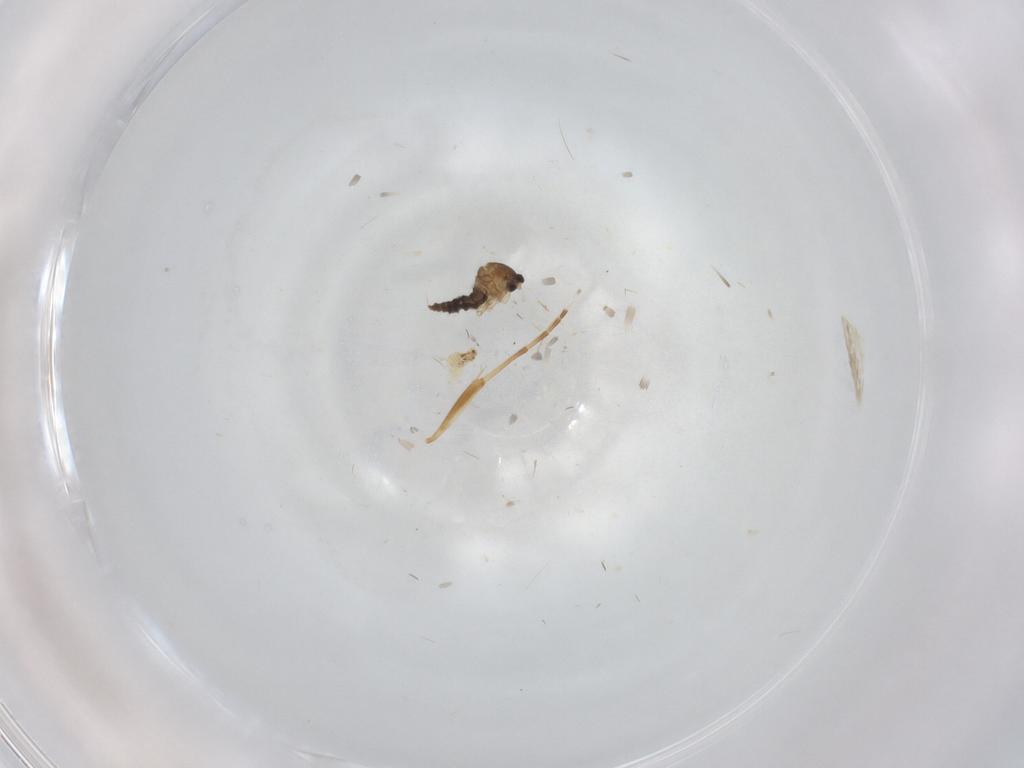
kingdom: Animalia
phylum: Arthropoda
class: Insecta
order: Diptera
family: Cecidomyiidae
